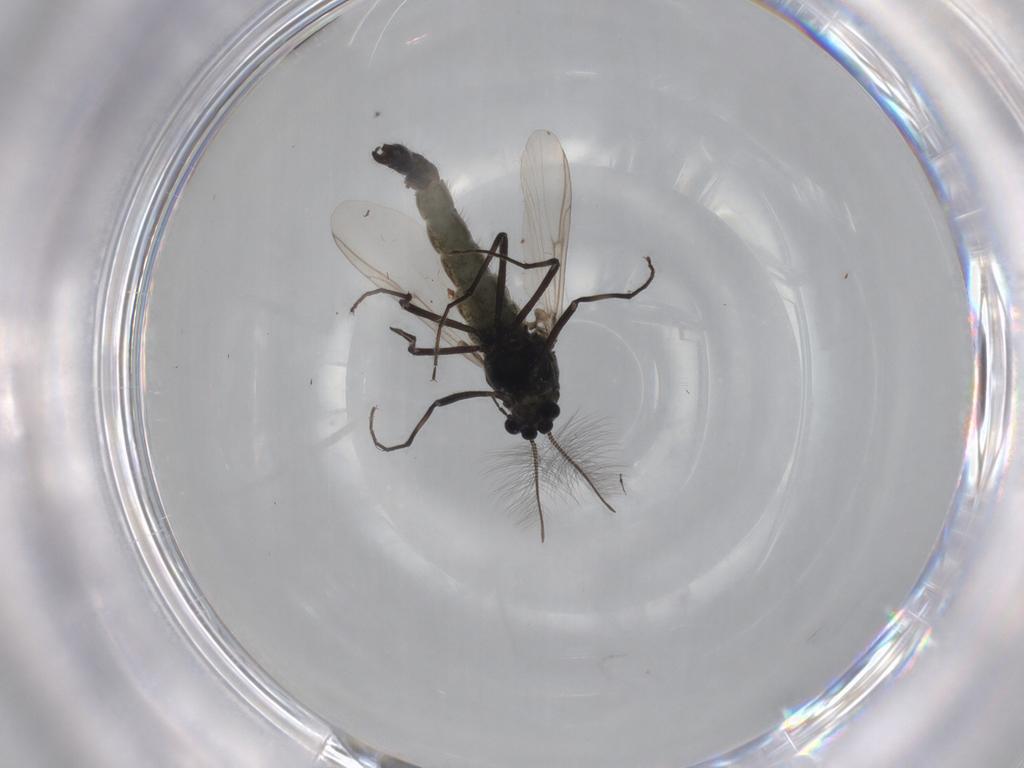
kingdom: Animalia
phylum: Arthropoda
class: Insecta
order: Diptera
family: Chironomidae
